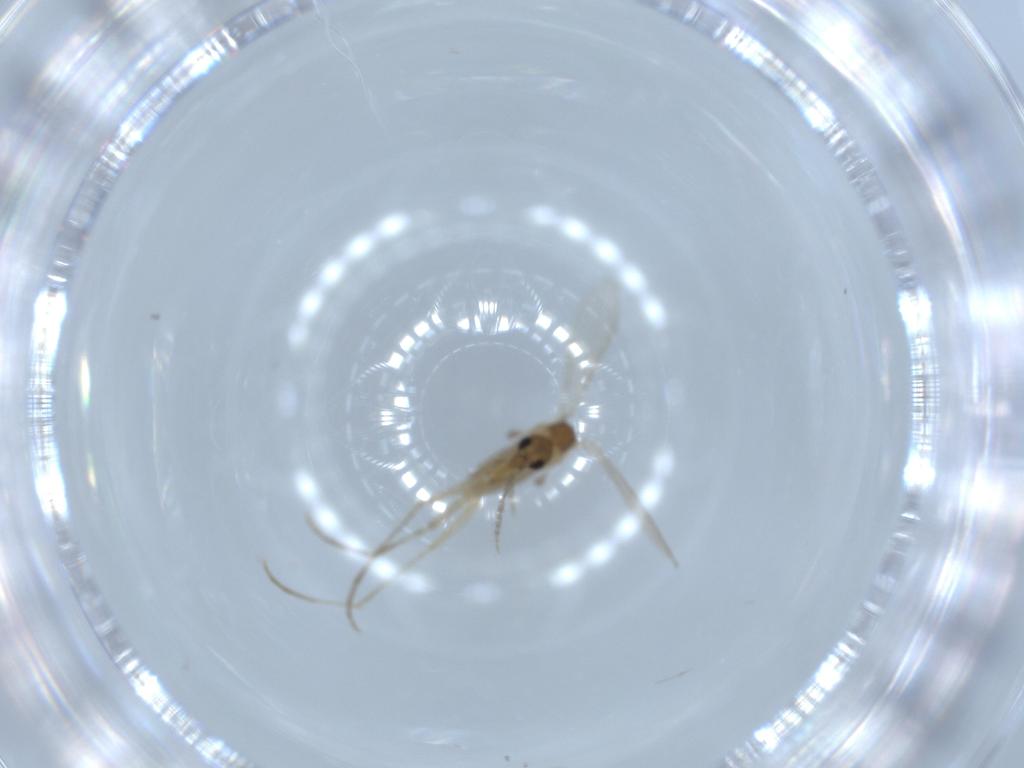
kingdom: Animalia
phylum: Arthropoda
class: Insecta
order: Diptera
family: Psychodidae
